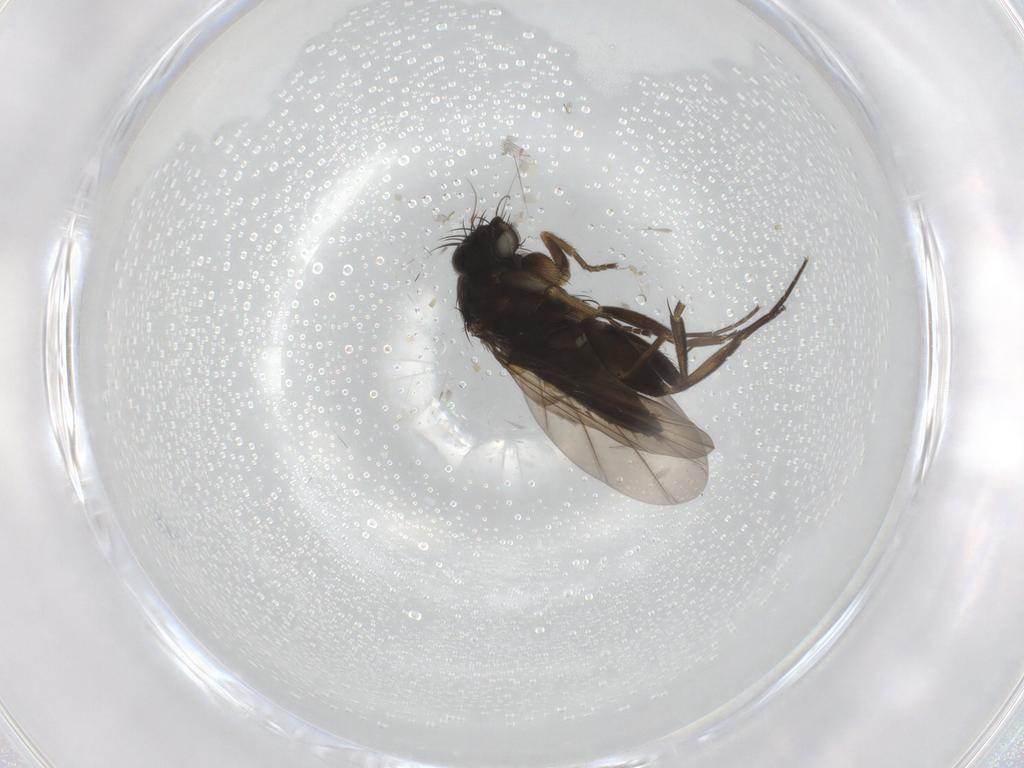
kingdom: Animalia
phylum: Arthropoda
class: Insecta
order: Diptera
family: Phoridae
